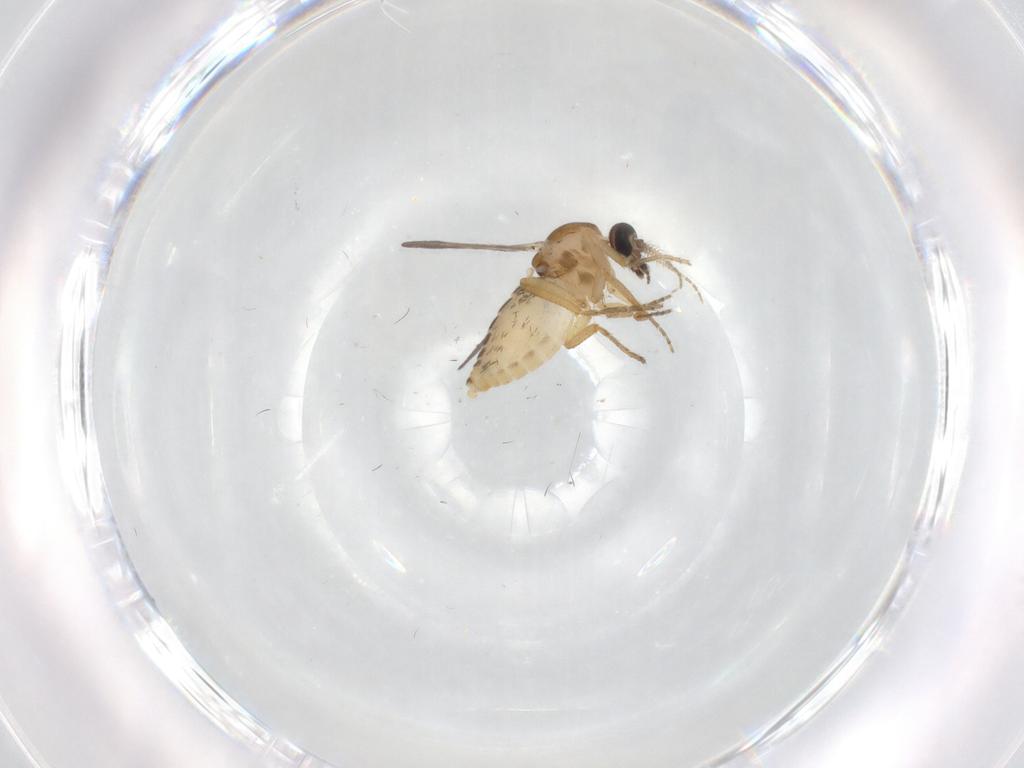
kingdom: Animalia
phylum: Arthropoda
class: Insecta
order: Diptera
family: Ceratopogonidae
